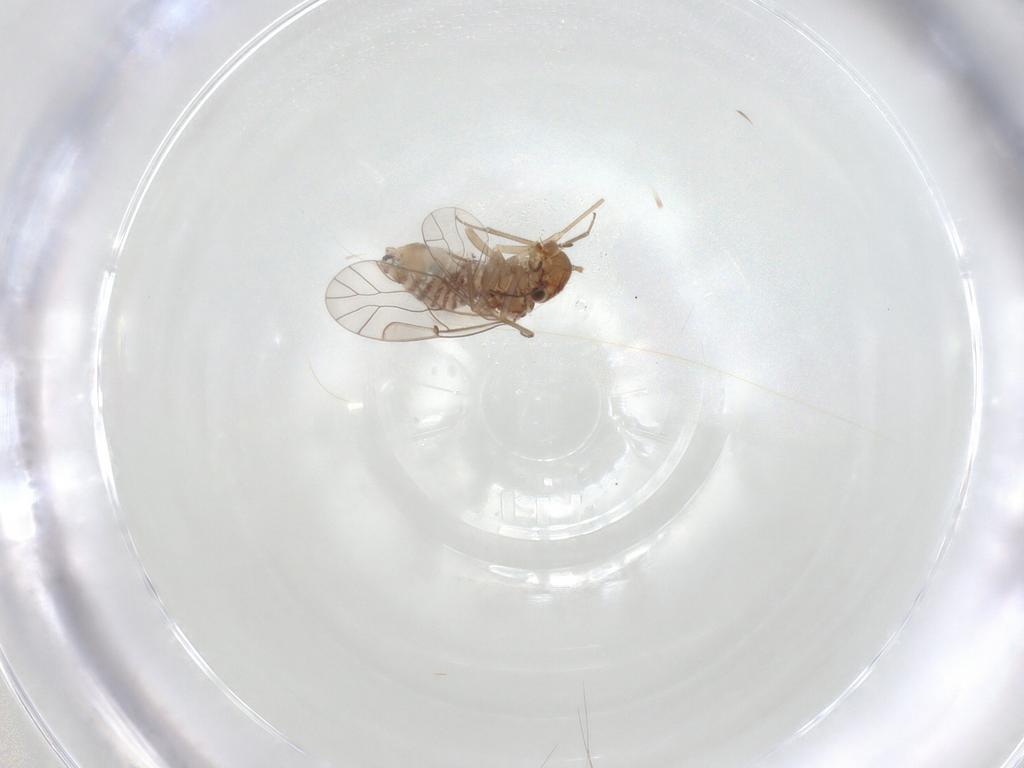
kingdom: Animalia
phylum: Arthropoda
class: Insecta
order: Psocodea
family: Lachesillidae
